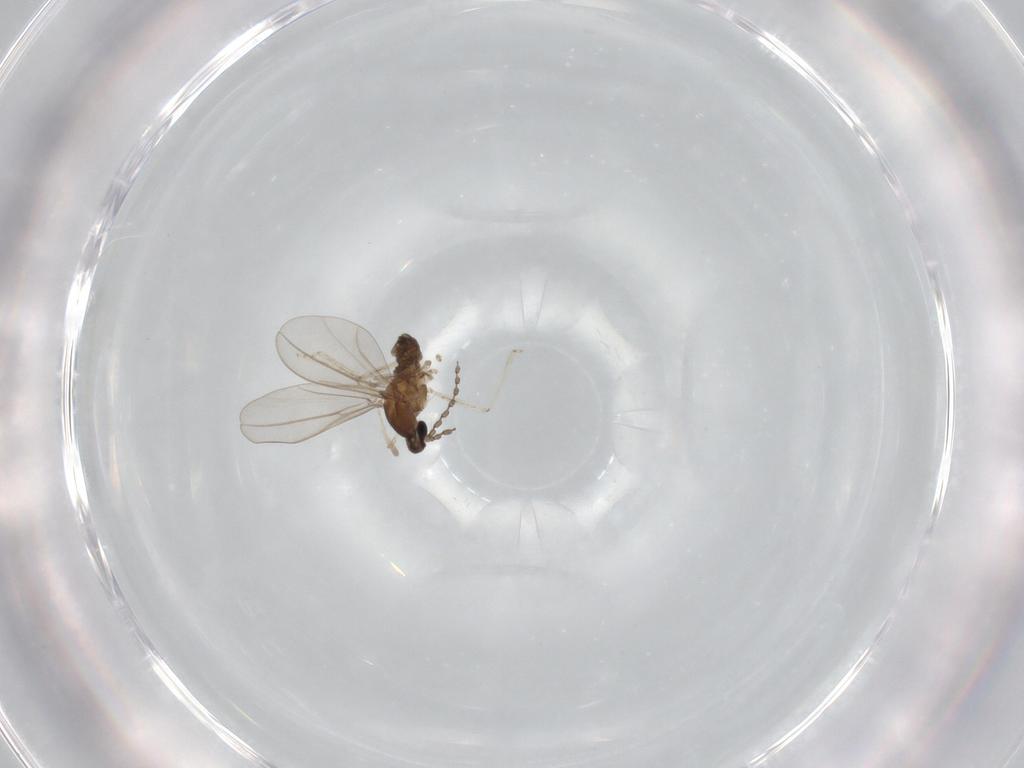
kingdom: Animalia
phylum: Arthropoda
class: Insecta
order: Diptera
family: Cecidomyiidae
